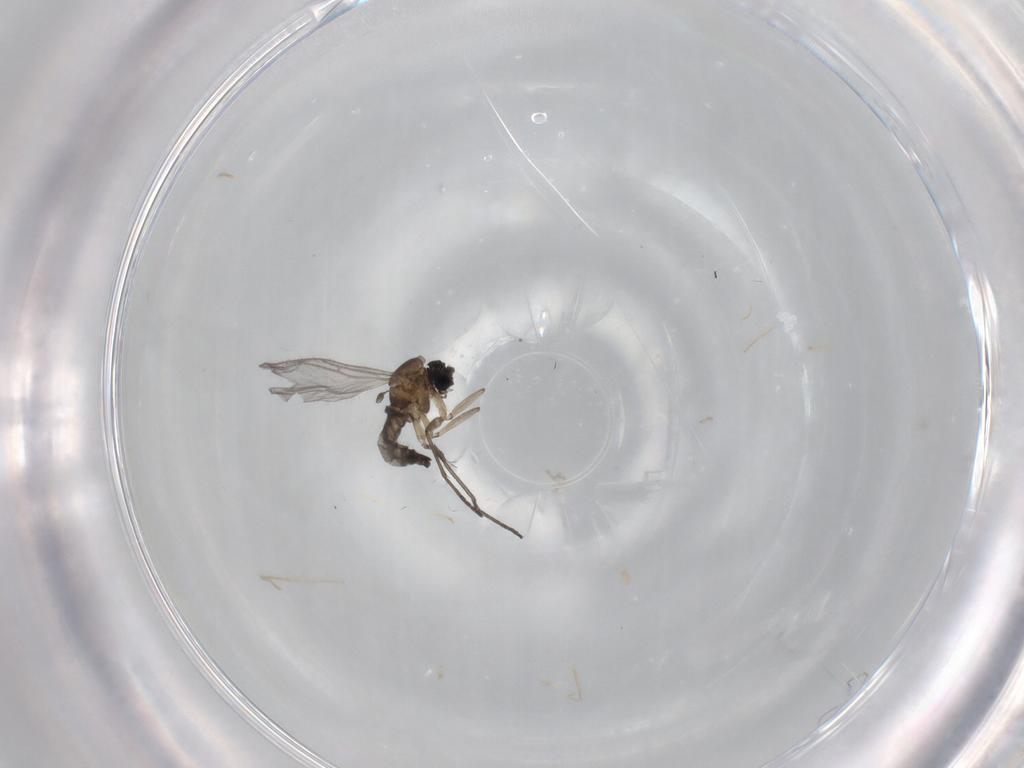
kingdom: Animalia
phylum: Arthropoda
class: Insecta
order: Diptera
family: Sciaridae
